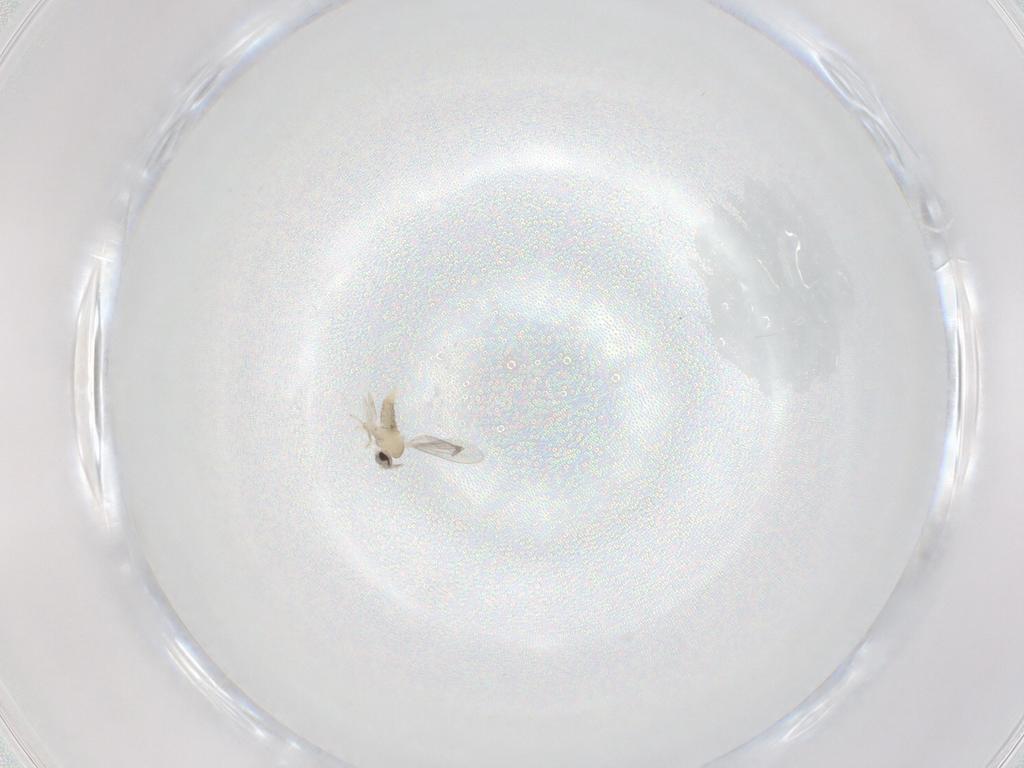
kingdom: Animalia
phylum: Arthropoda
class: Insecta
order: Diptera
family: Cecidomyiidae
